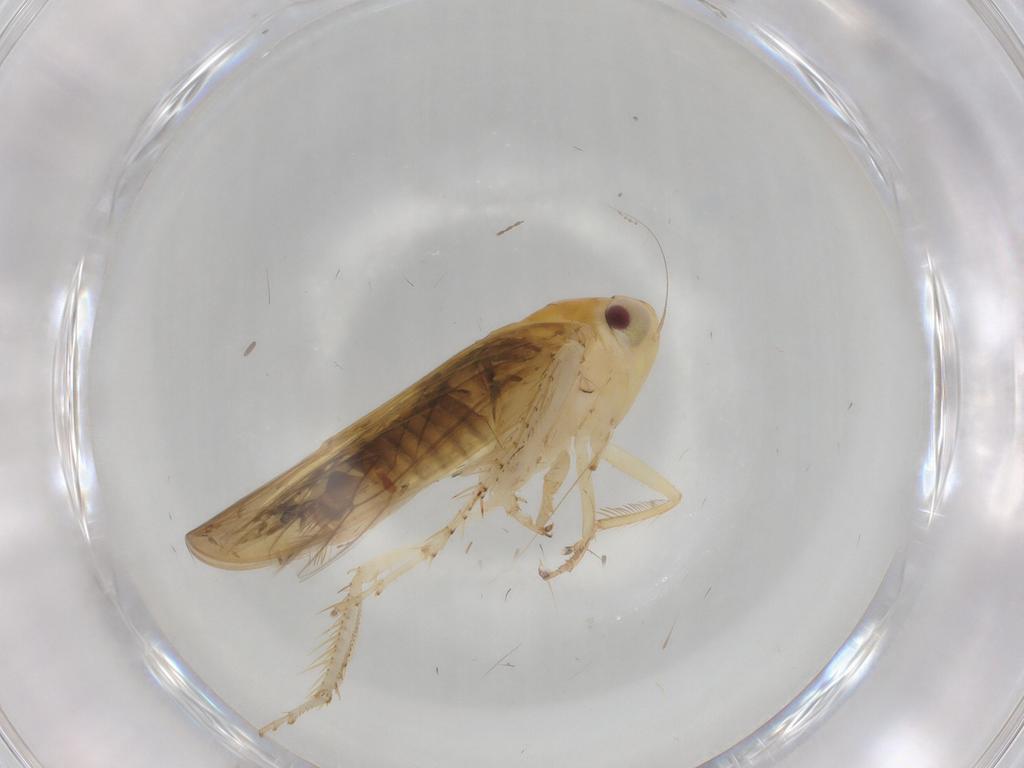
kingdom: Animalia
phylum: Arthropoda
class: Insecta
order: Hemiptera
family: Cicadellidae
